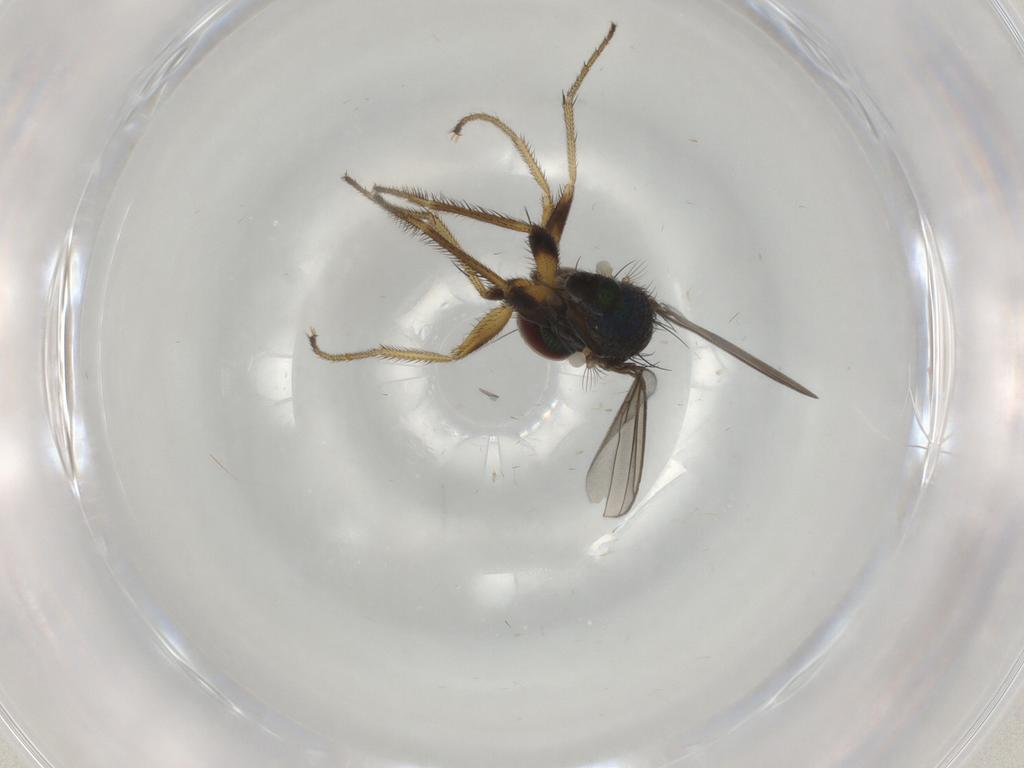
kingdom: Animalia
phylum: Arthropoda
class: Insecta
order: Diptera
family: Dolichopodidae
